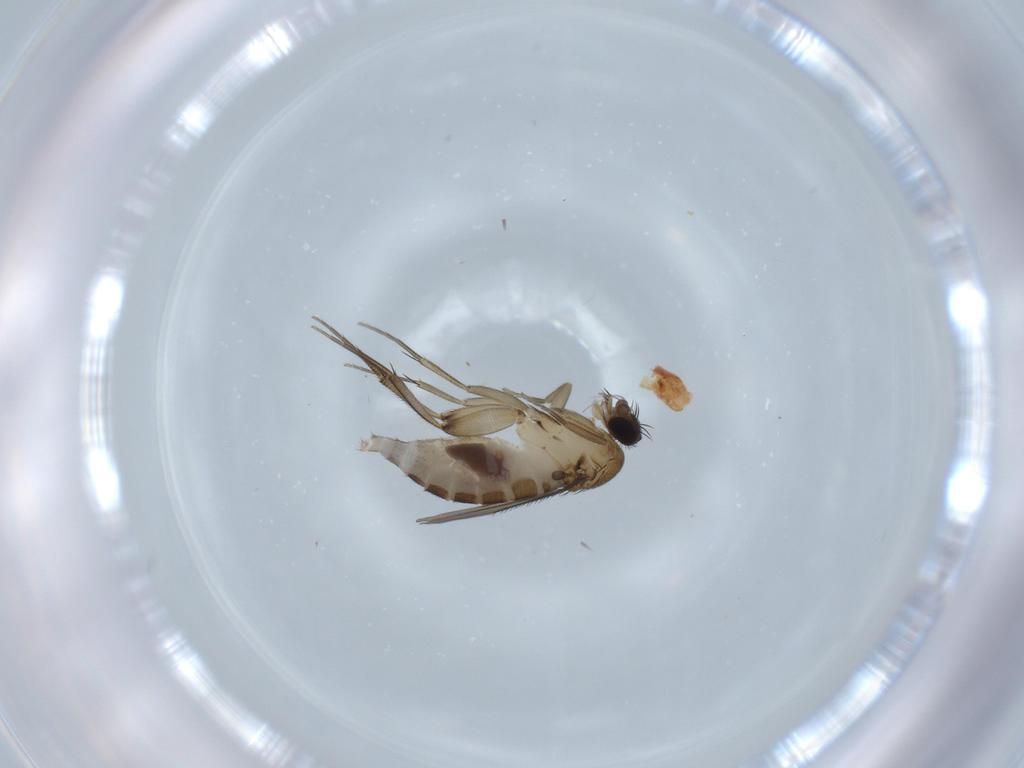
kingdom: Animalia
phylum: Arthropoda
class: Insecta
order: Diptera
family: Phoridae
